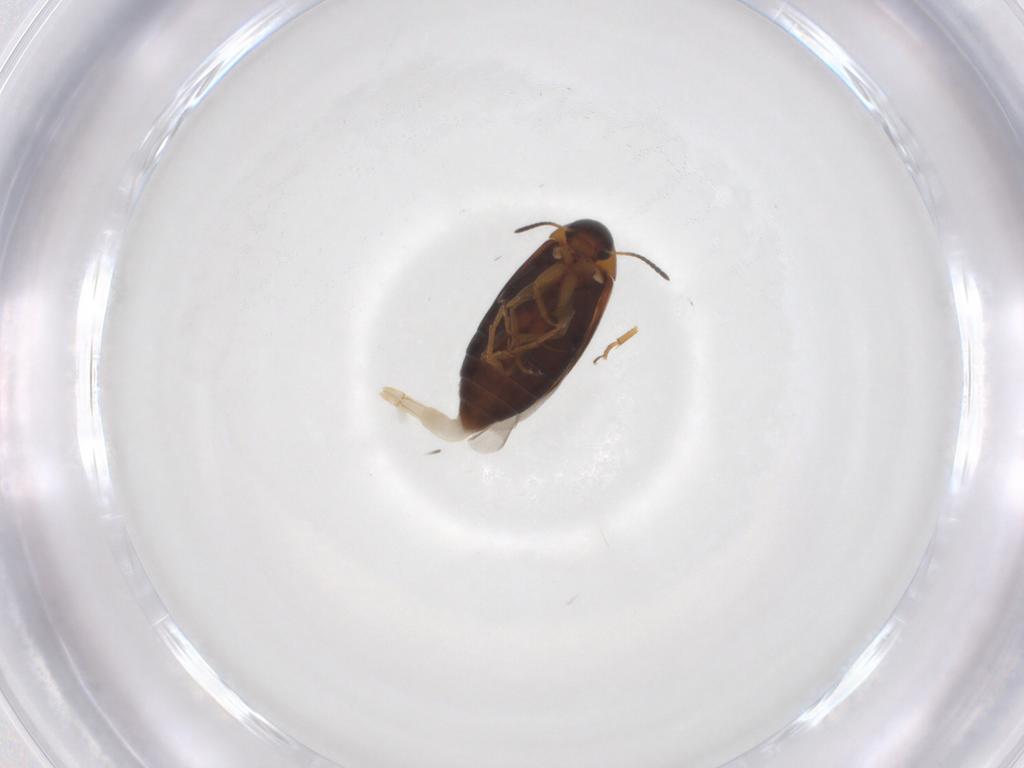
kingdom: Animalia
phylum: Arthropoda
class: Insecta
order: Coleoptera
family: Scraptiidae
